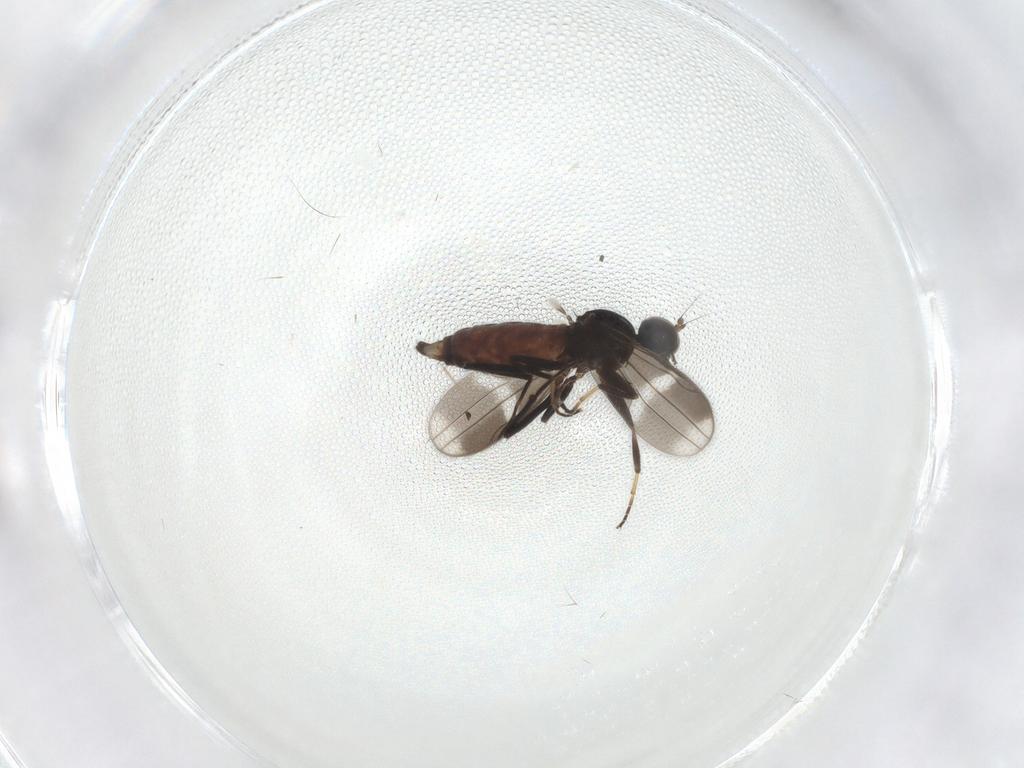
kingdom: Animalia
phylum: Arthropoda
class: Insecta
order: Diptera
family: Hybotidae
